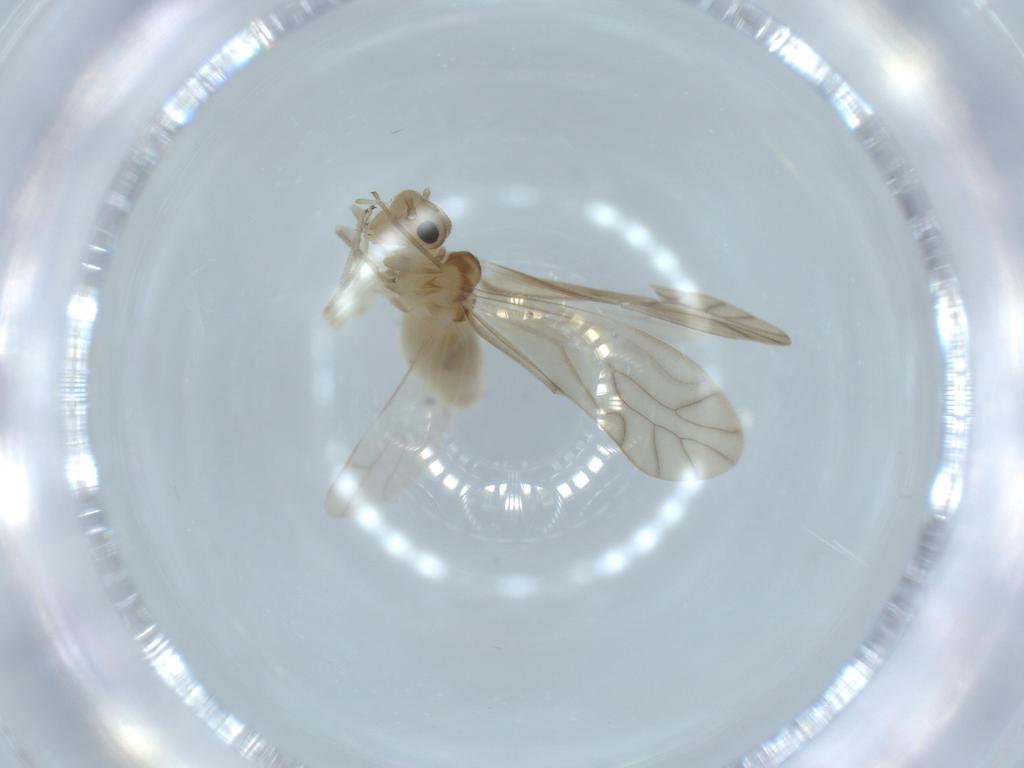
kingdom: Animalia
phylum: Arthropoda
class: Insecta
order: Psocodea
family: Caeciliusidae
